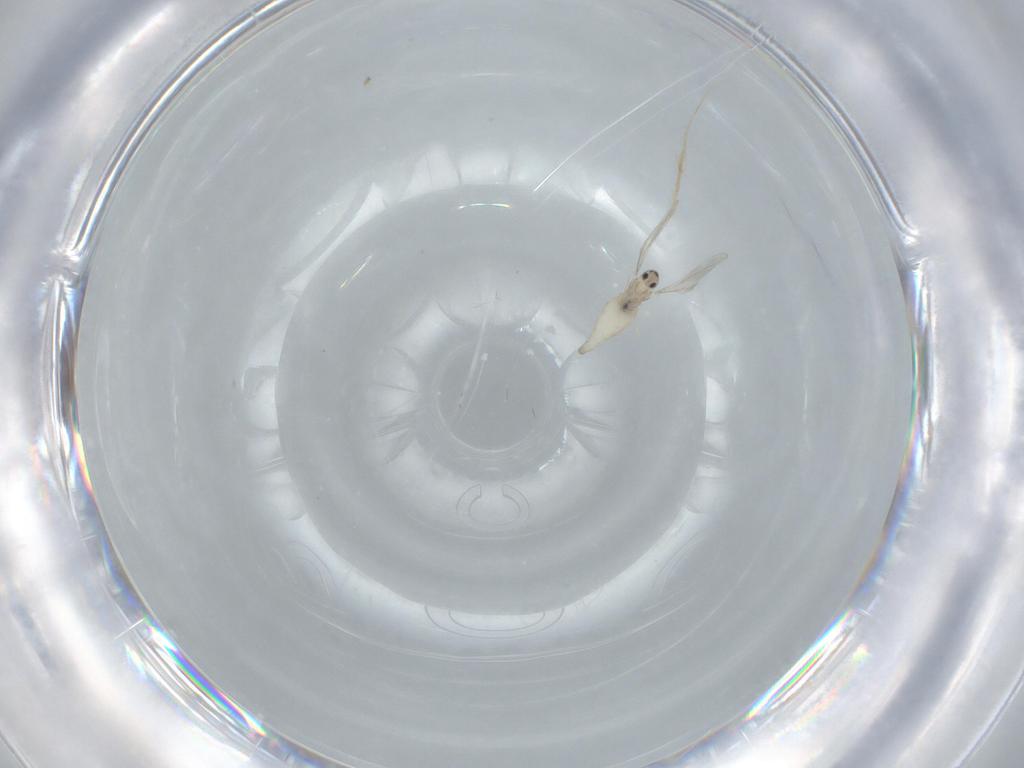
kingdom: Animalia
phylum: Arthropoda
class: Insecta
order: Diptera
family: Cecidomyiidae
